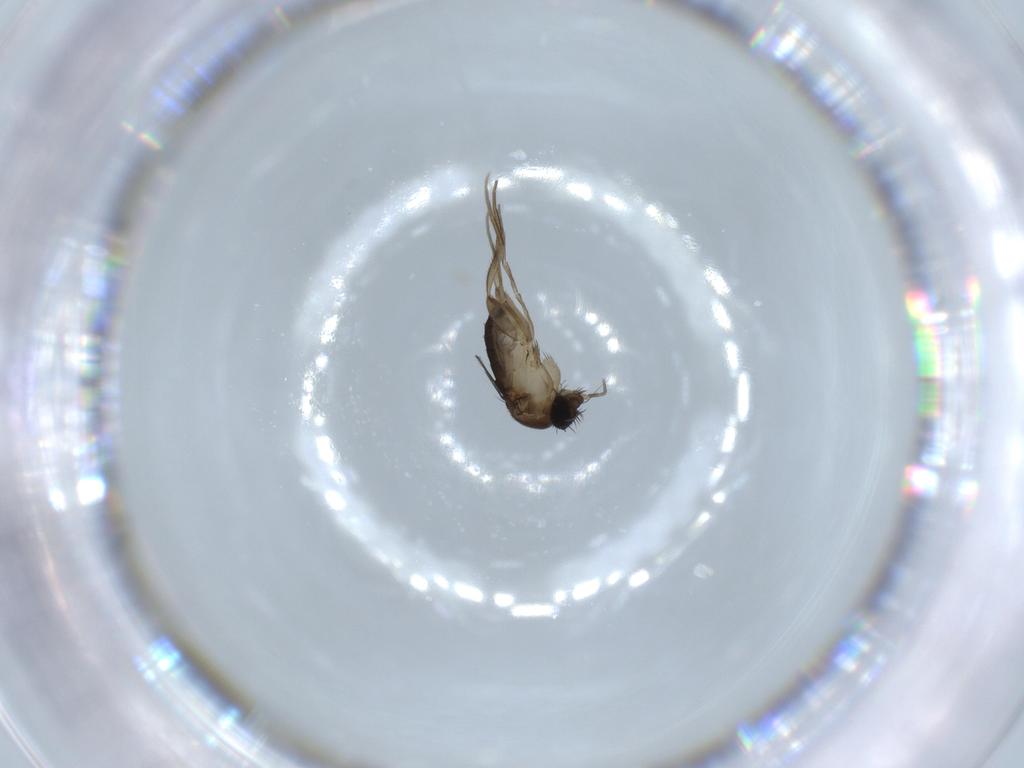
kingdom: Animalia
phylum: Arthropoda
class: Insecta
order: Diptera
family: Phoridae
